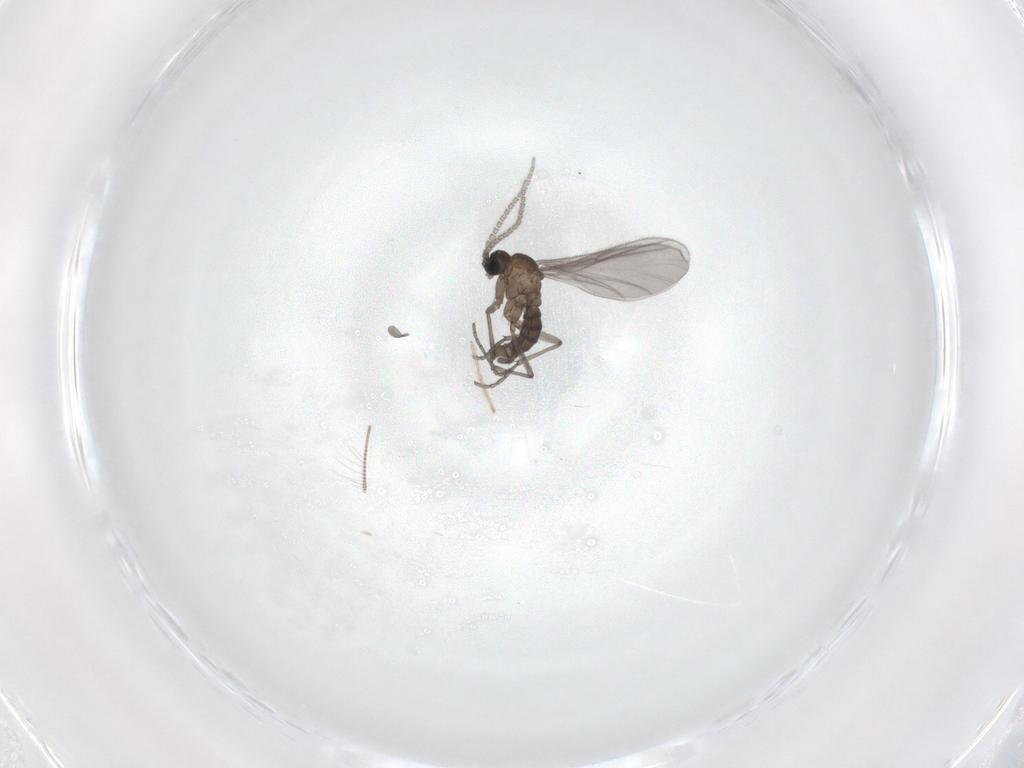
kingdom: Animalia
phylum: Arthropoda
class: Insecta
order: Diptera
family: Sciaridae
